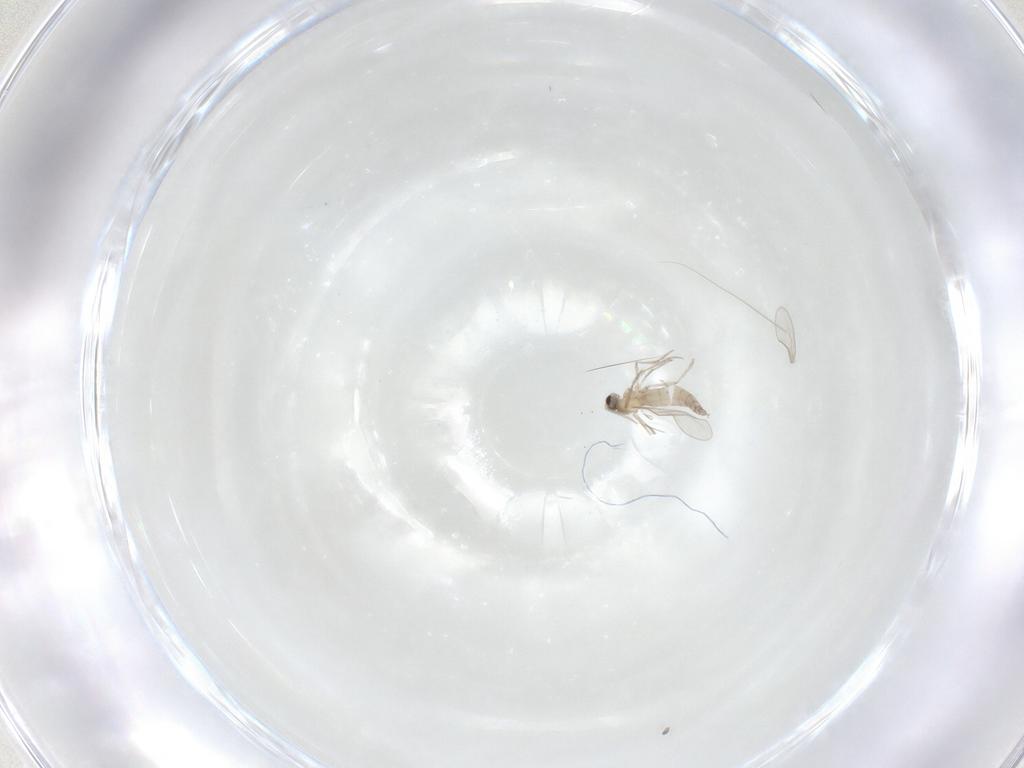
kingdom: Animalia
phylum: Arthropoda
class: Insecta
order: Diptera
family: Cecidomyiidae
